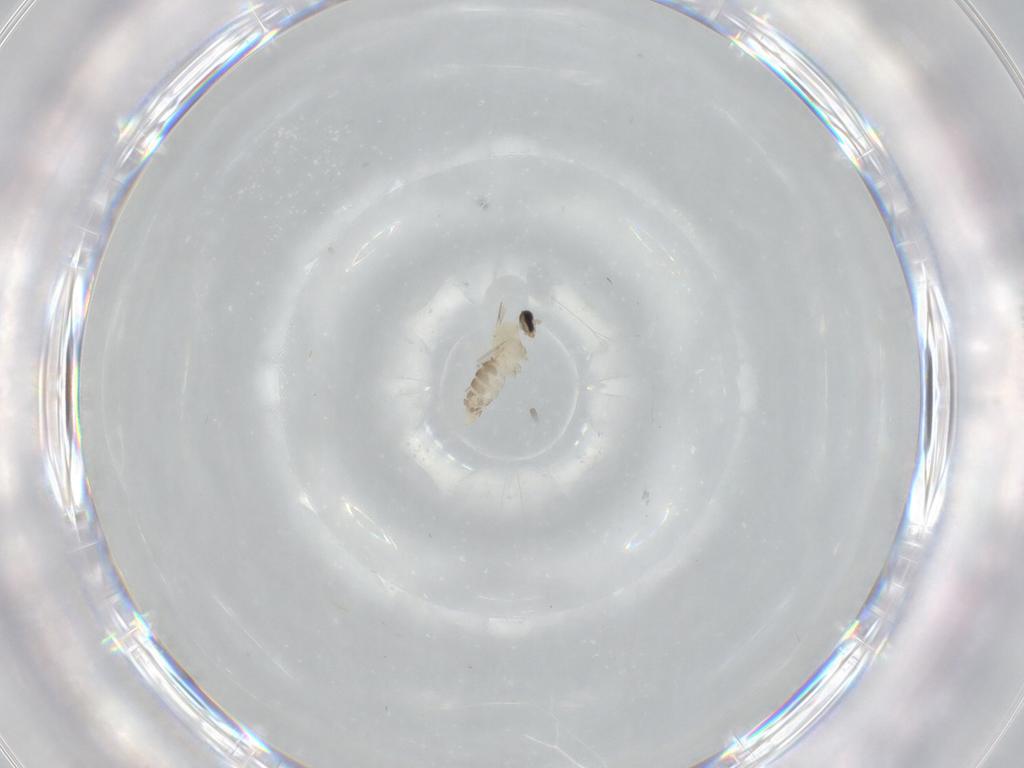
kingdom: Animalia
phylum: Arthropoda
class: Insecta
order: Diptera
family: Cecidomyiidae
